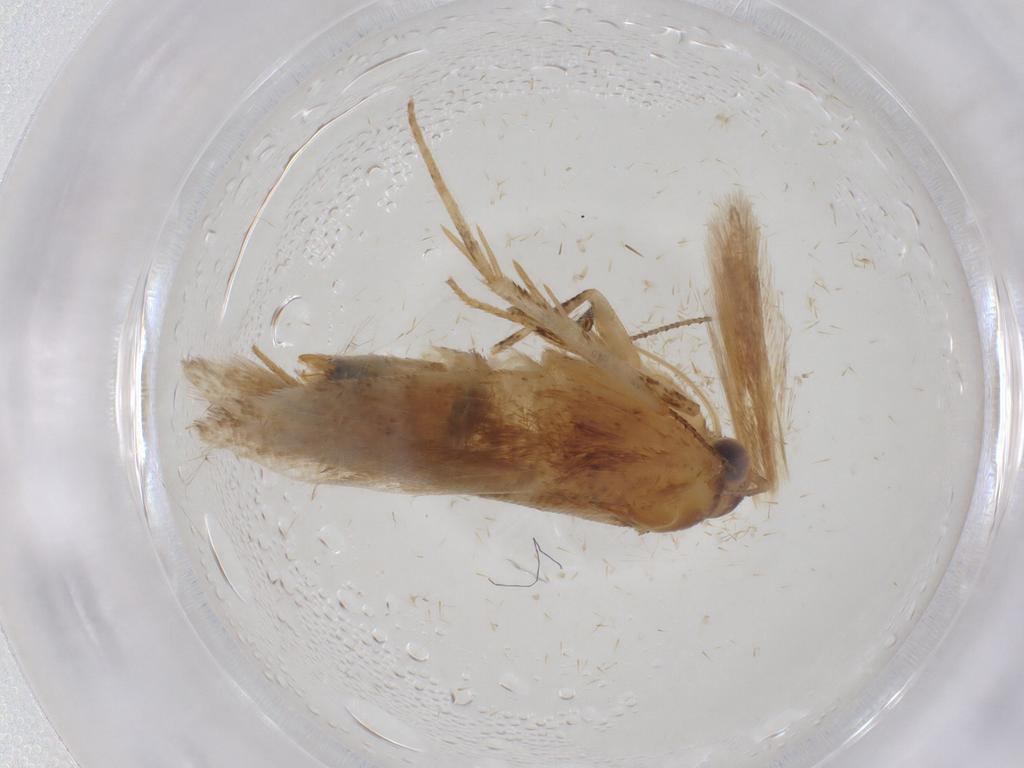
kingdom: Animalia
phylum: Arthropoda
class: Insecta
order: Lepidoptera
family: Gelechiidae
